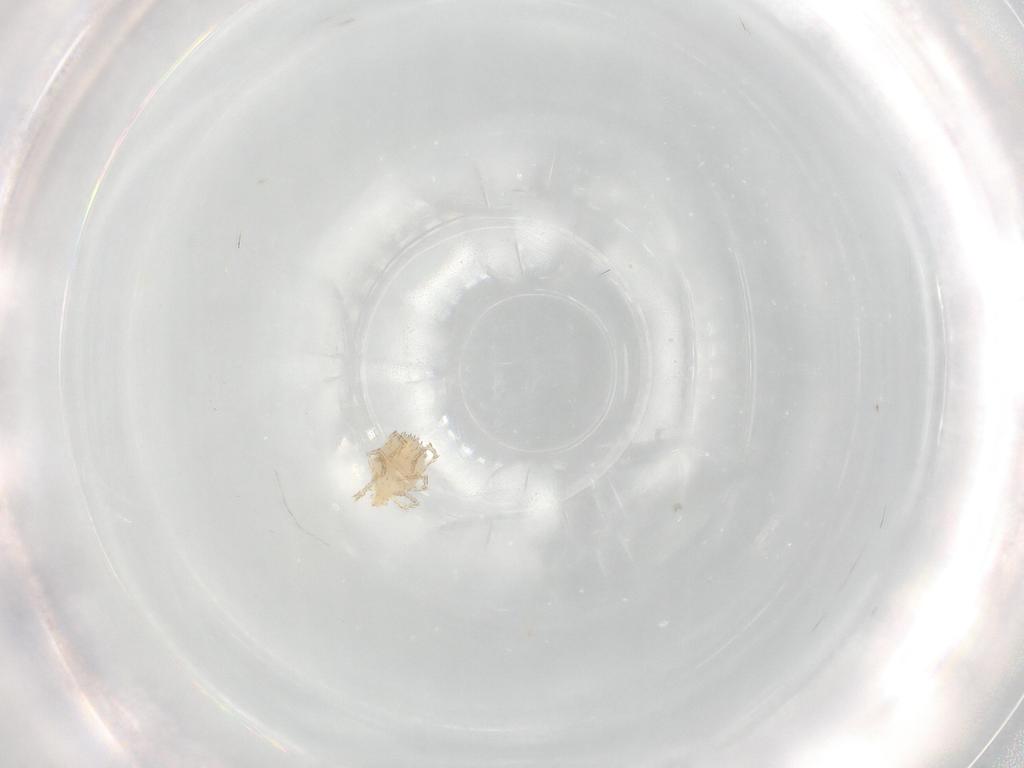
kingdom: Animalia
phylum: Arthropoda
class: Arachnida
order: Trombidiformes
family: Erythraeidae
